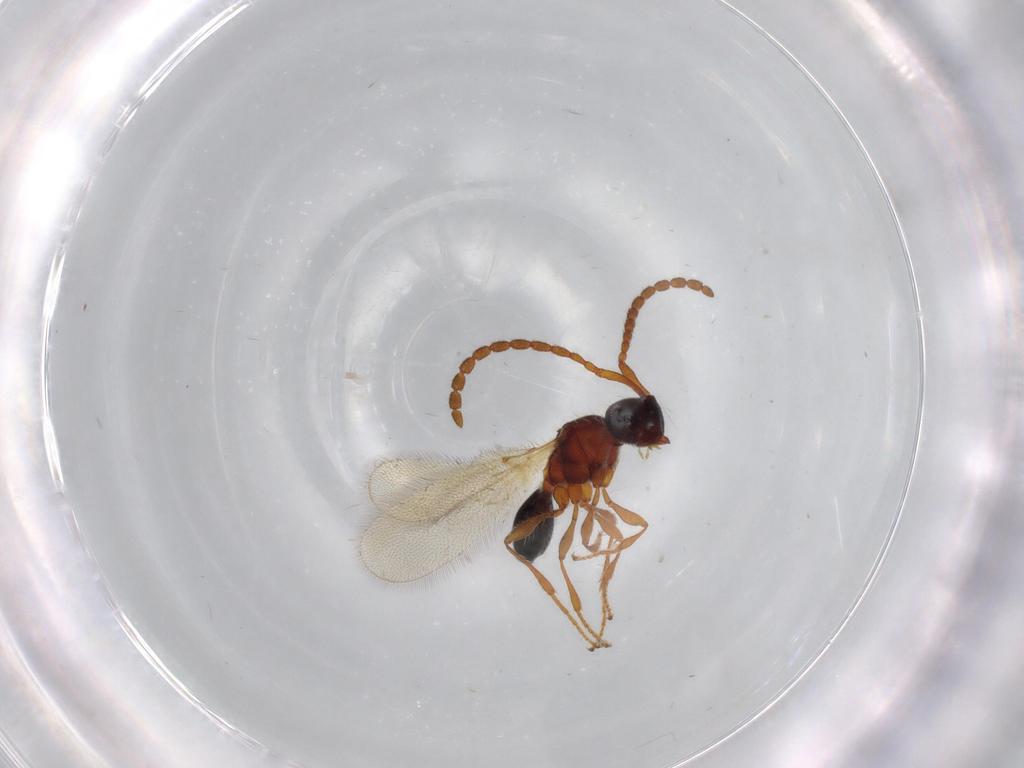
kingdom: Animalia
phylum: Arthropoda
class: Insecta
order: Hymenoptera
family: Diapriidae
